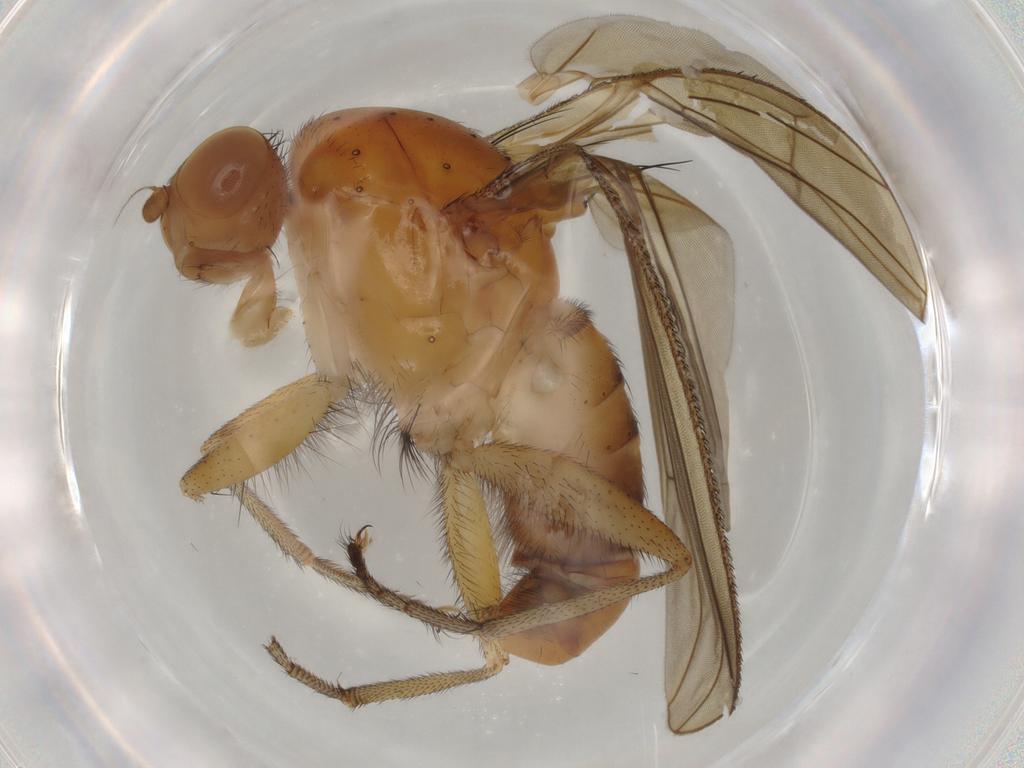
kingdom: Animalia
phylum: Arthropoda
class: Insecta
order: Diptera
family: Heleomyzidae
